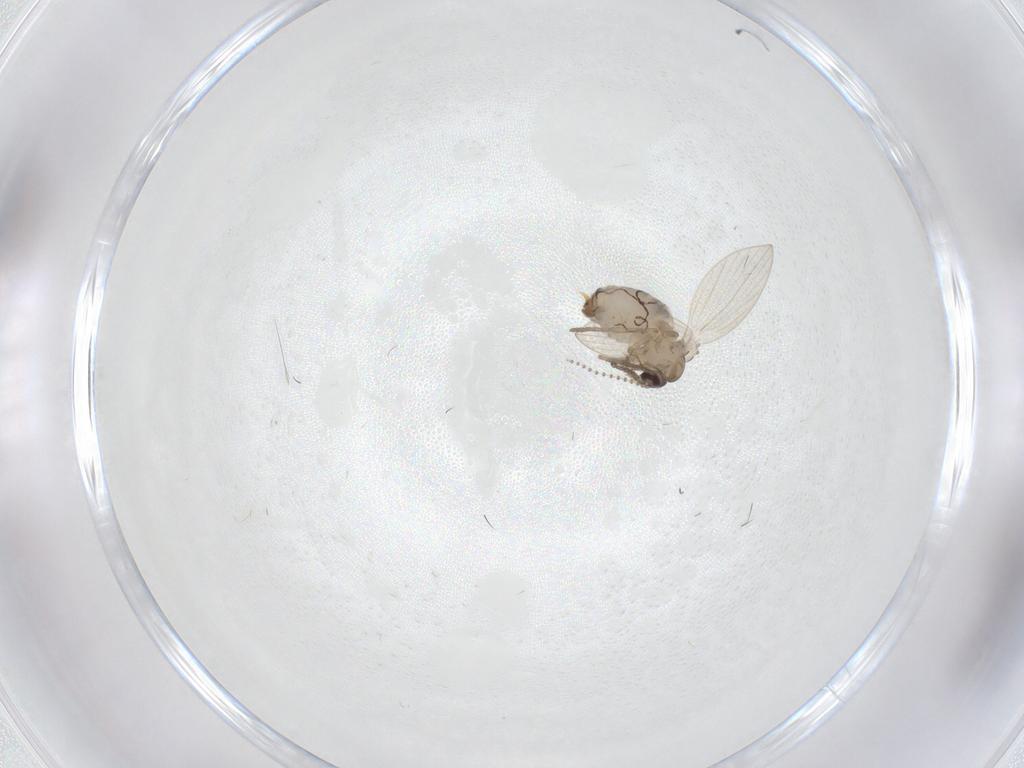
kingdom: Animalia
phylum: Arthropoda
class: Insecta
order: Diptera
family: Psychodidae
